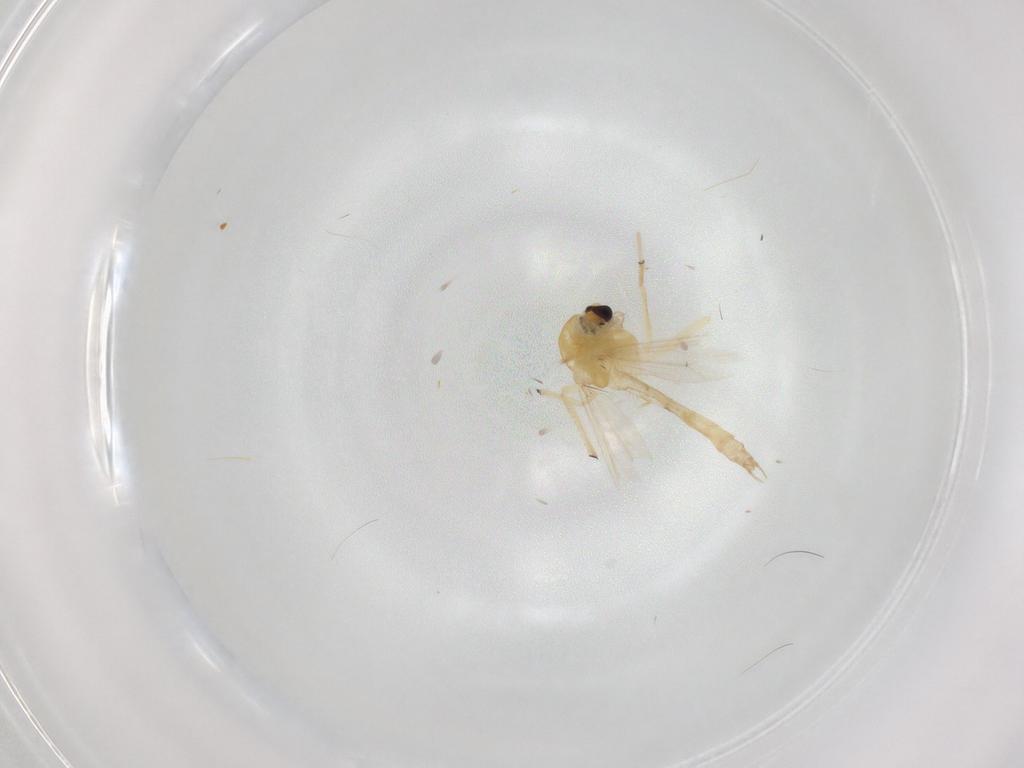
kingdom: Animalia
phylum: Arthropoda
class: Insecta
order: Diptera
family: Chironomidae
